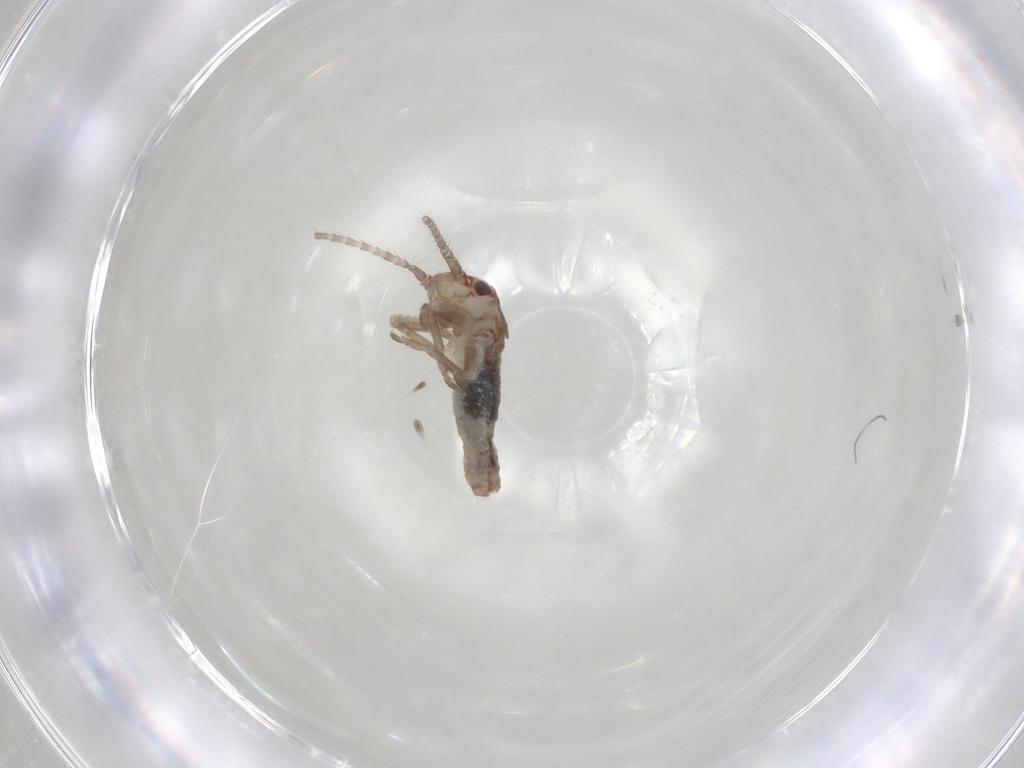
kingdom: Animalia
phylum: Arthropoda
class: Insecta
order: Orthoptera
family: Mogoplistidae
